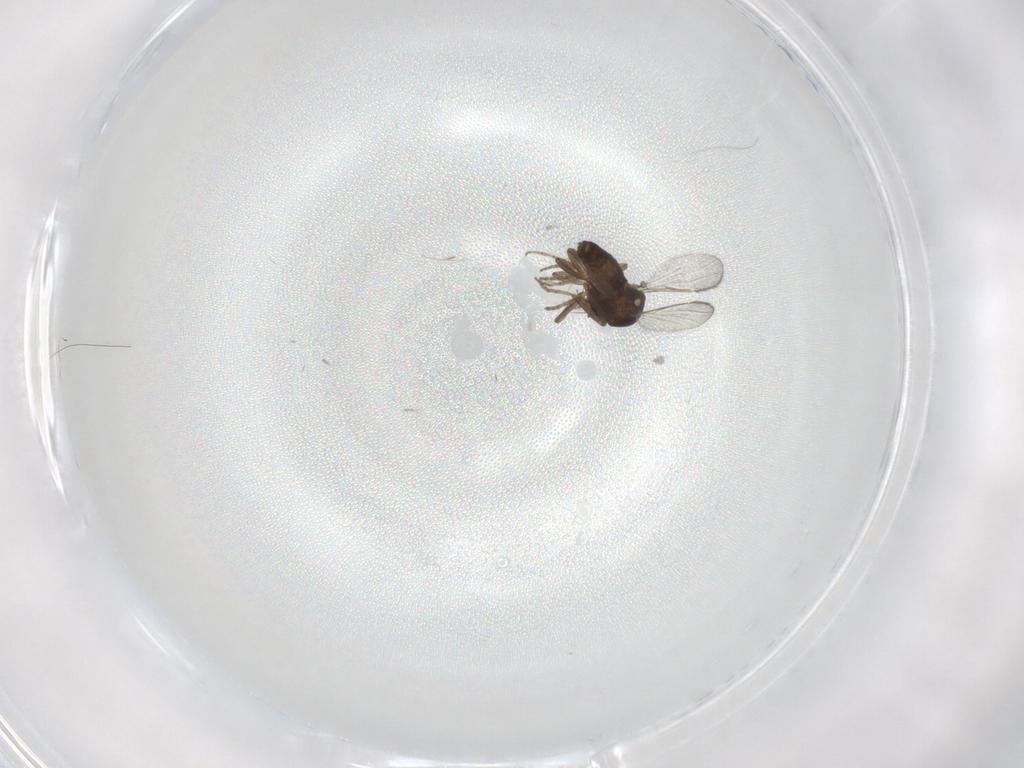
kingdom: Animalia
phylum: Arthropoda
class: Insecta
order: Diptera
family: Ceratopogonidae
